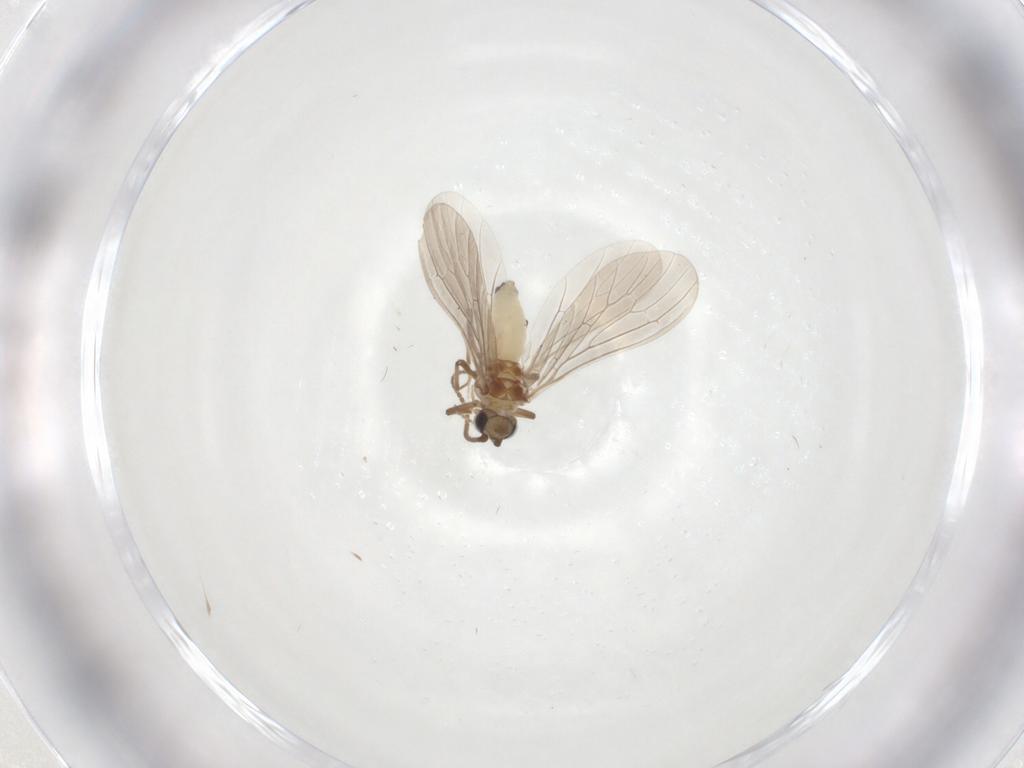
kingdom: Animalia
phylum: Arthropoda
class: Insecta
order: Neuroptera
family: Coniopterygidae
